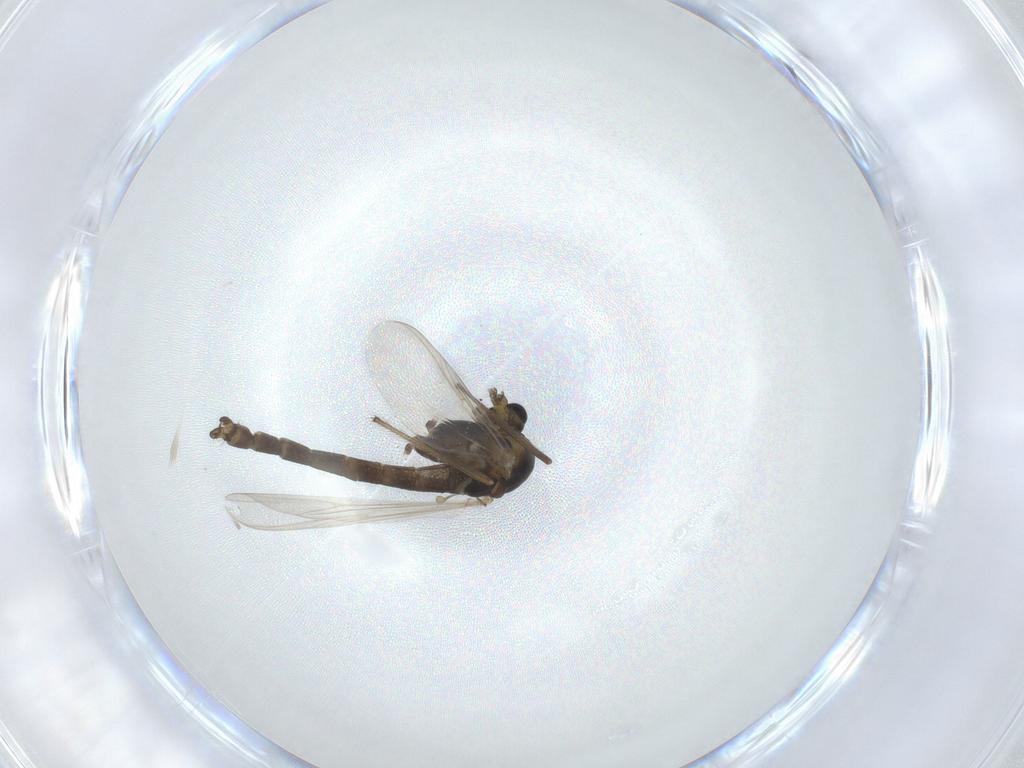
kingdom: Animalia
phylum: Arthropoda
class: Insecta
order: Diptera
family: Chironomidae
